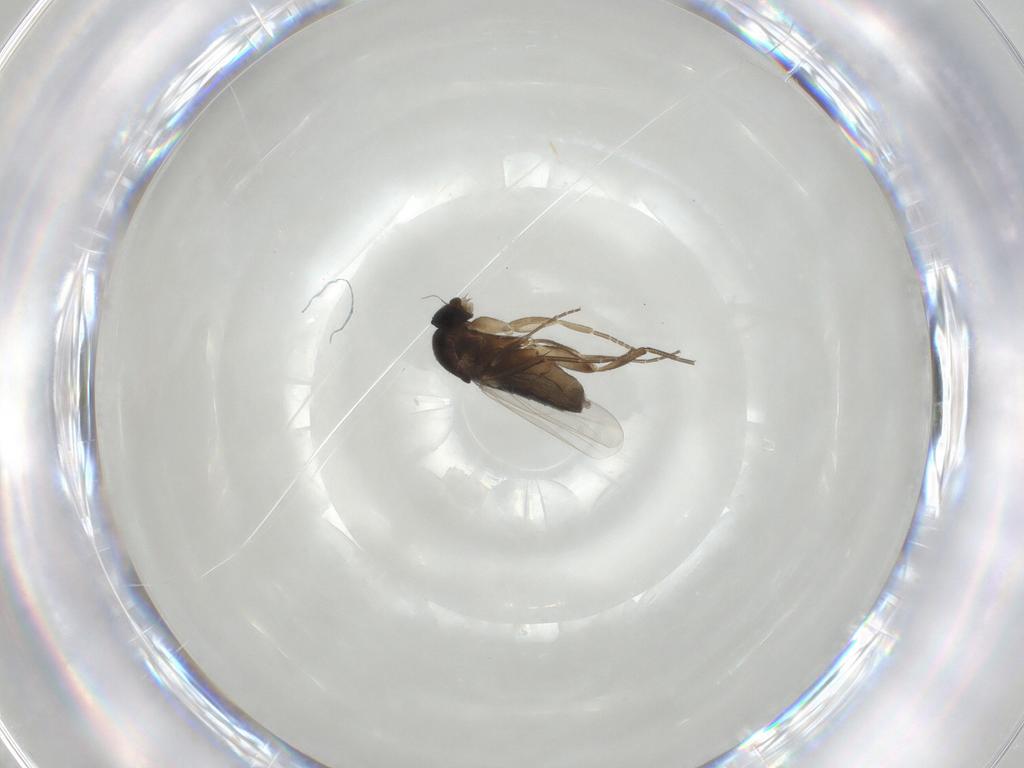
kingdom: Animalia
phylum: Arthropoda
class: Insecta
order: Diptera
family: Phoridae
